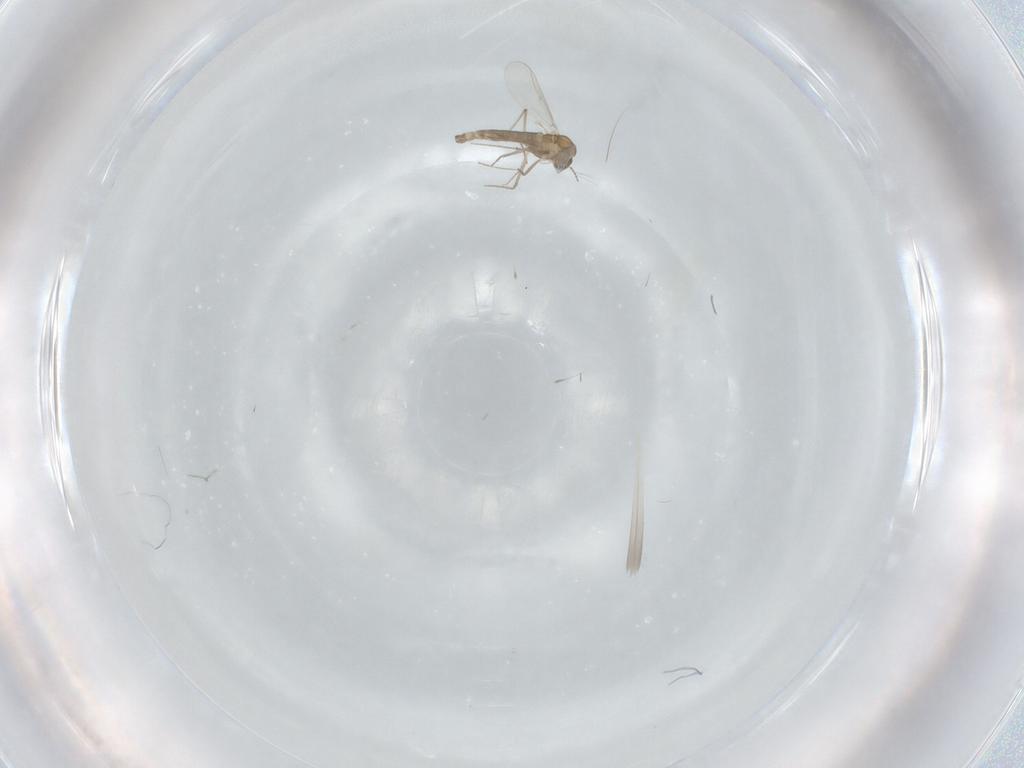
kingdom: Animalia
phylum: Arthropoda
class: Insecta
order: Diptera
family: Chironomidae
